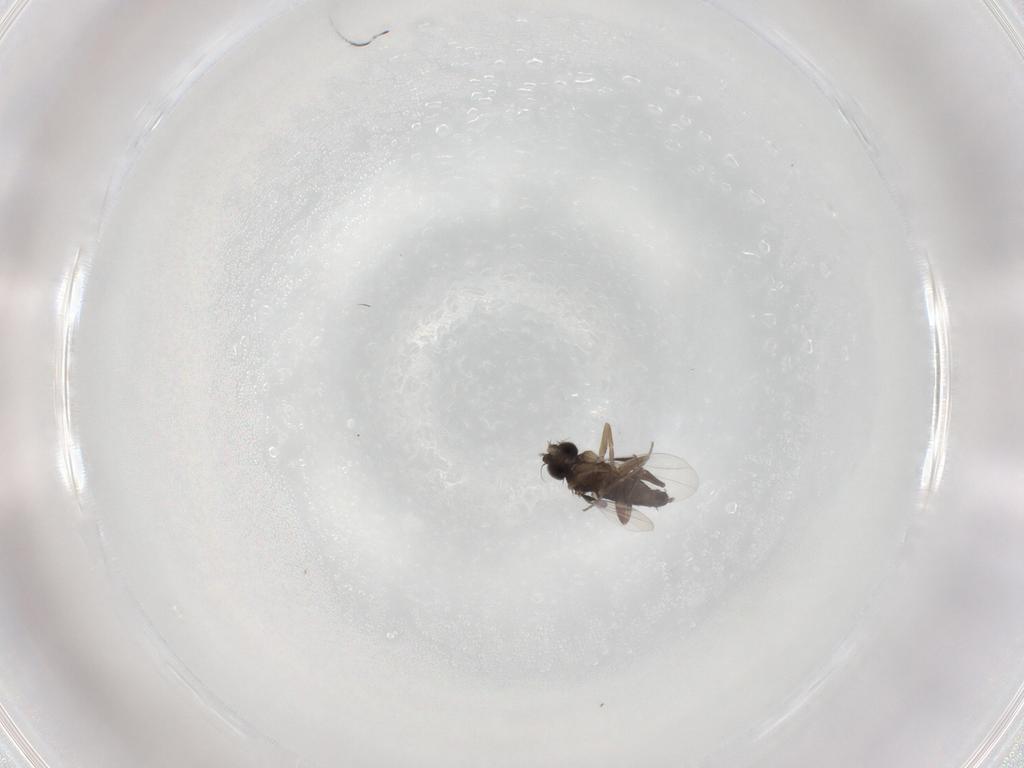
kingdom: Animalia
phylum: Arthropoda
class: Insecta
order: Diptera
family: Phoridae
